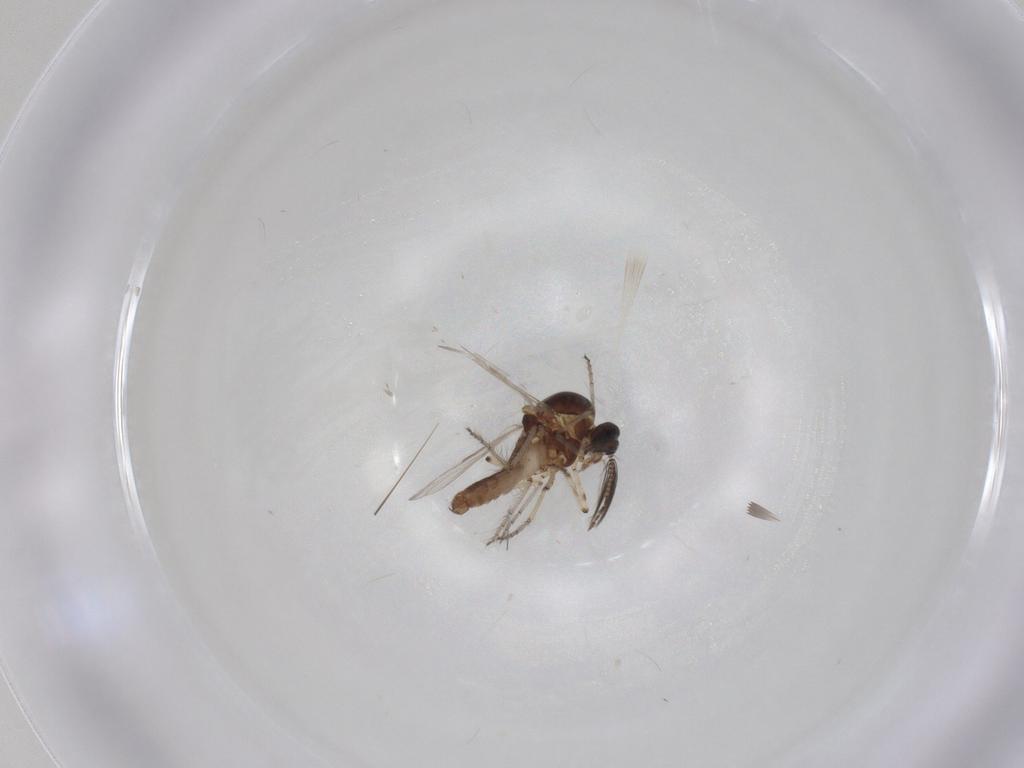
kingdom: Animalia
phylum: Arthropoda
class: Insecta
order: Diptera
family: Ceratopogonidae
